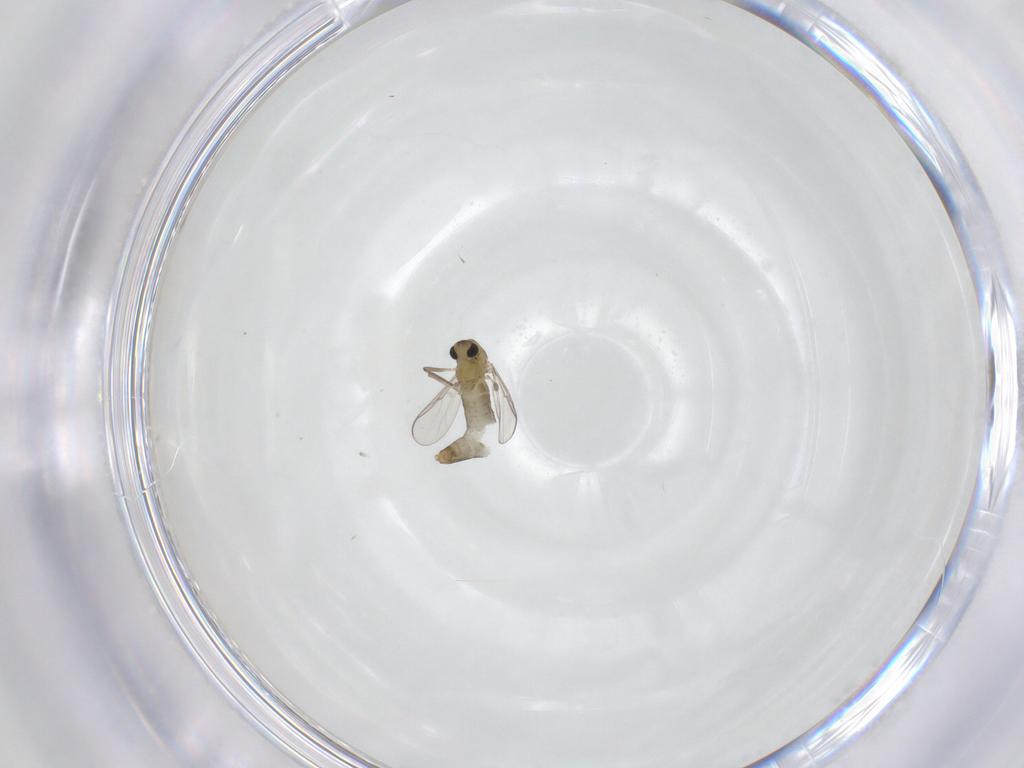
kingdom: Animalia
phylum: Arthropoda
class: Insecta
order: Diptera
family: Chironomidae
